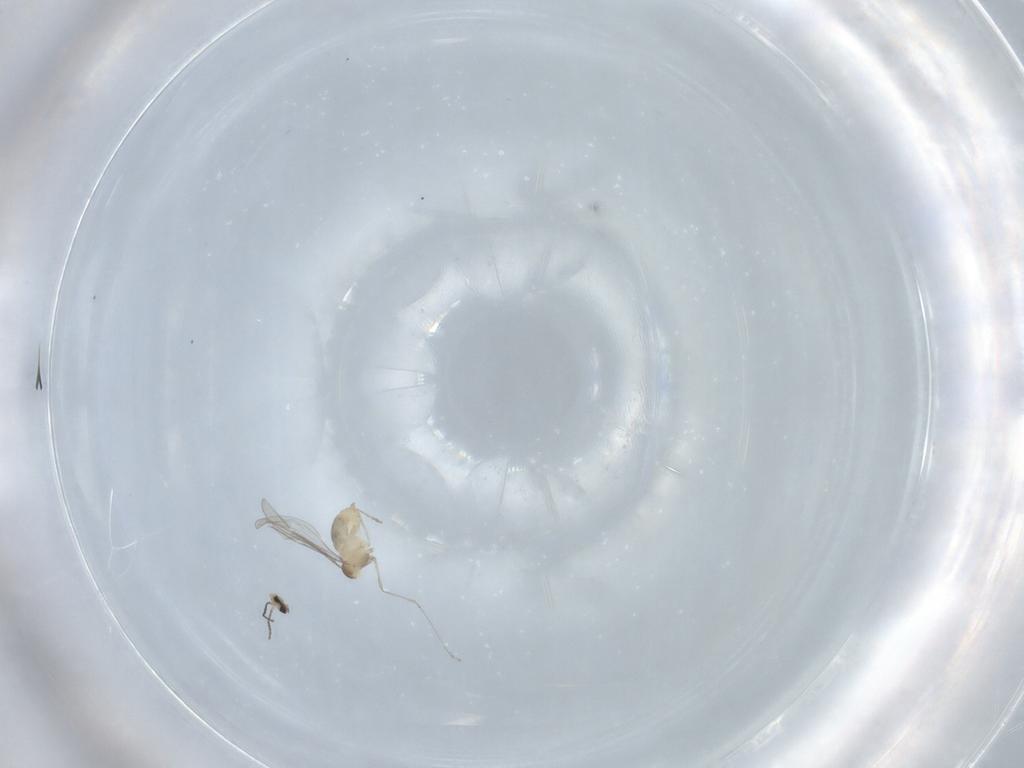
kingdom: Animalia
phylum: Arthropoda
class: Insecta
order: Diptera
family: Cecidomyiidae
